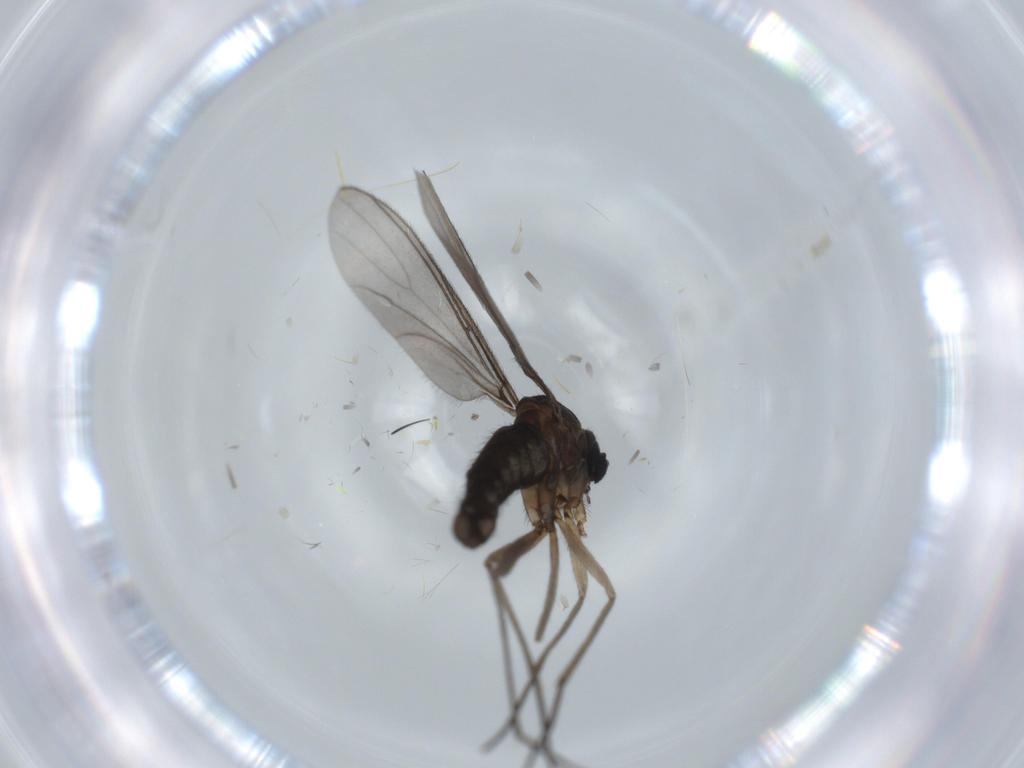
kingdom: Animalia
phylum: Arthropoda
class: Insecta
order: Diptera
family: Sciaridae
